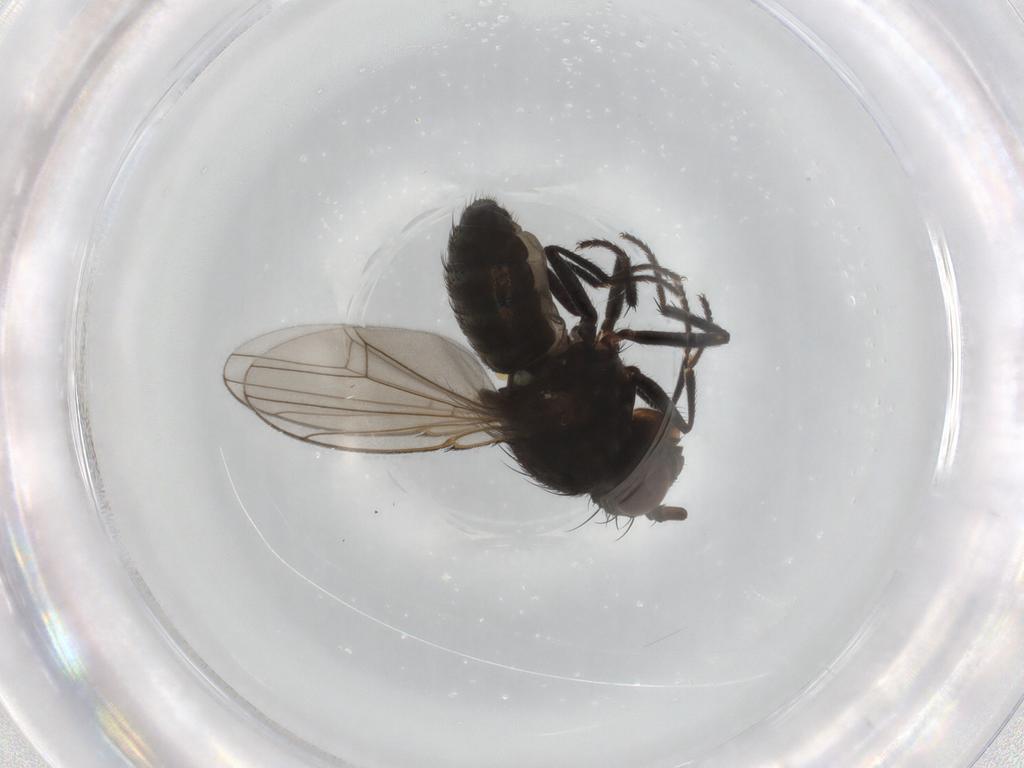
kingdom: Animalia
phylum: Arthropoda
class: Insecta
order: Diptera
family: Ephydridae
